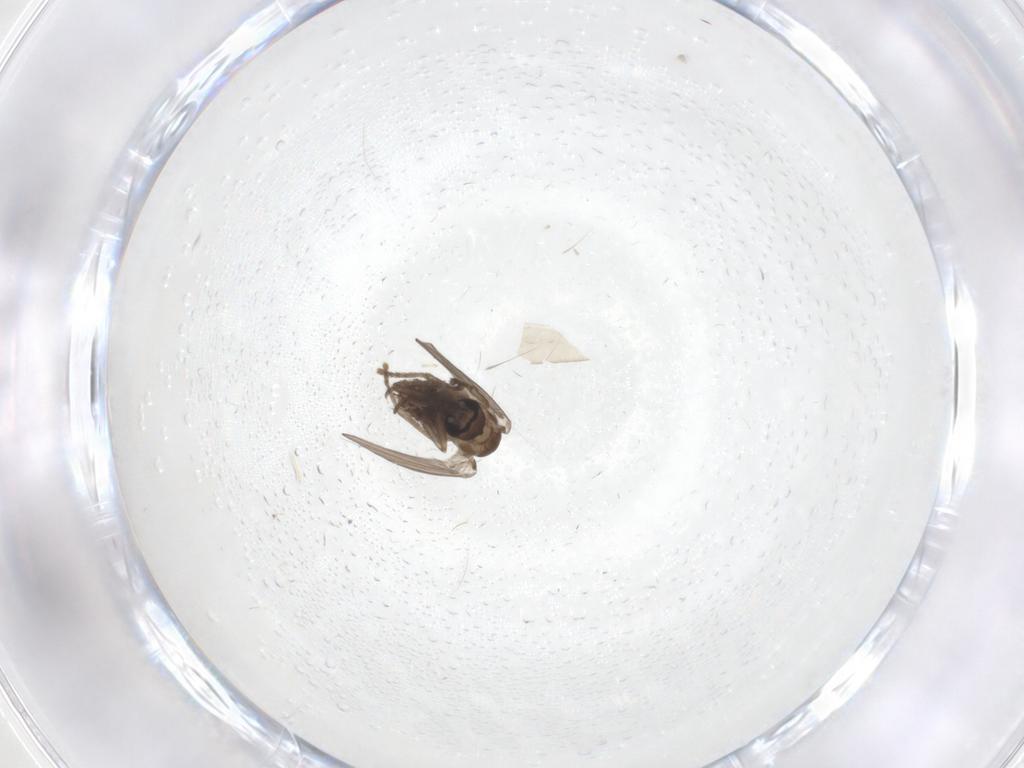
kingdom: Animalia
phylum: Arthropoda
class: Insecta
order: Diptera
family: Psychodidae
